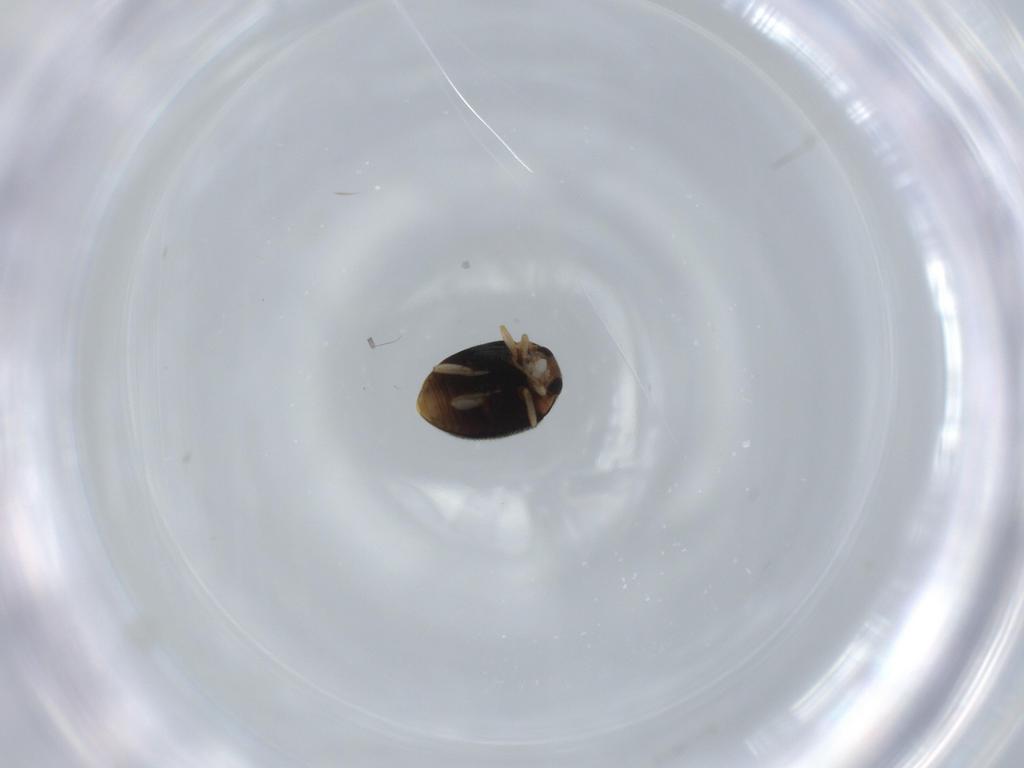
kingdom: Animalia
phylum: Arthropoda
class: Insecta
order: Coleoptera
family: Coccinellidae
